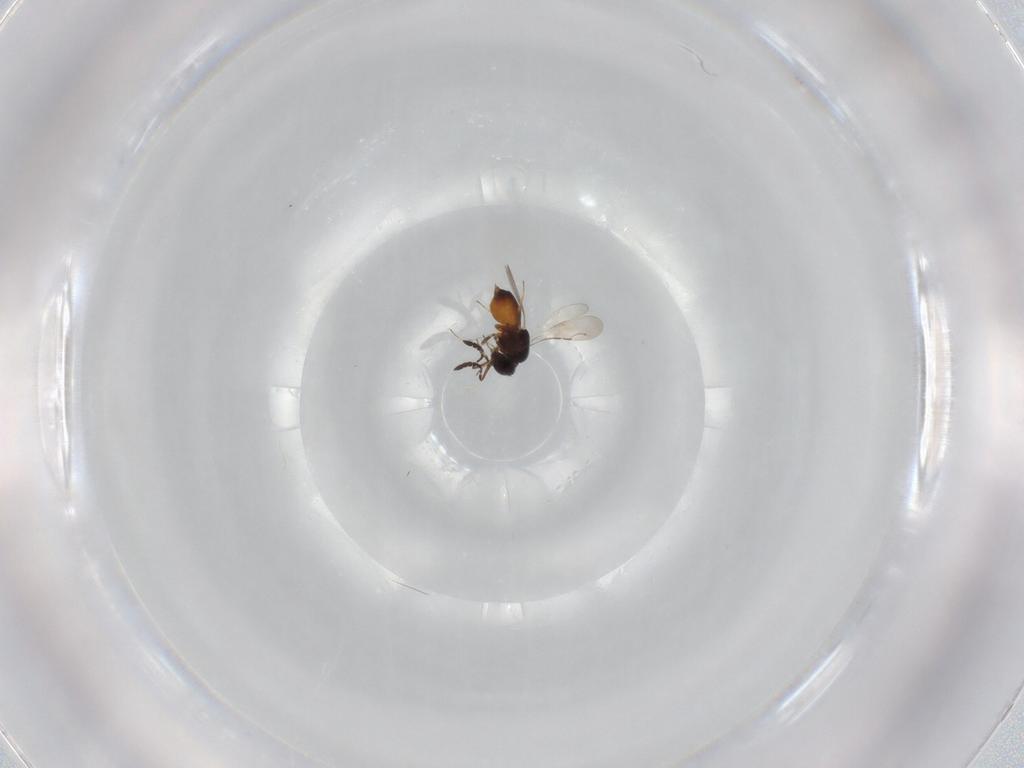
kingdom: Animalia
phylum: Arthropoda
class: Insecta
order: Hymenoptera
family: Ceraphronidae
